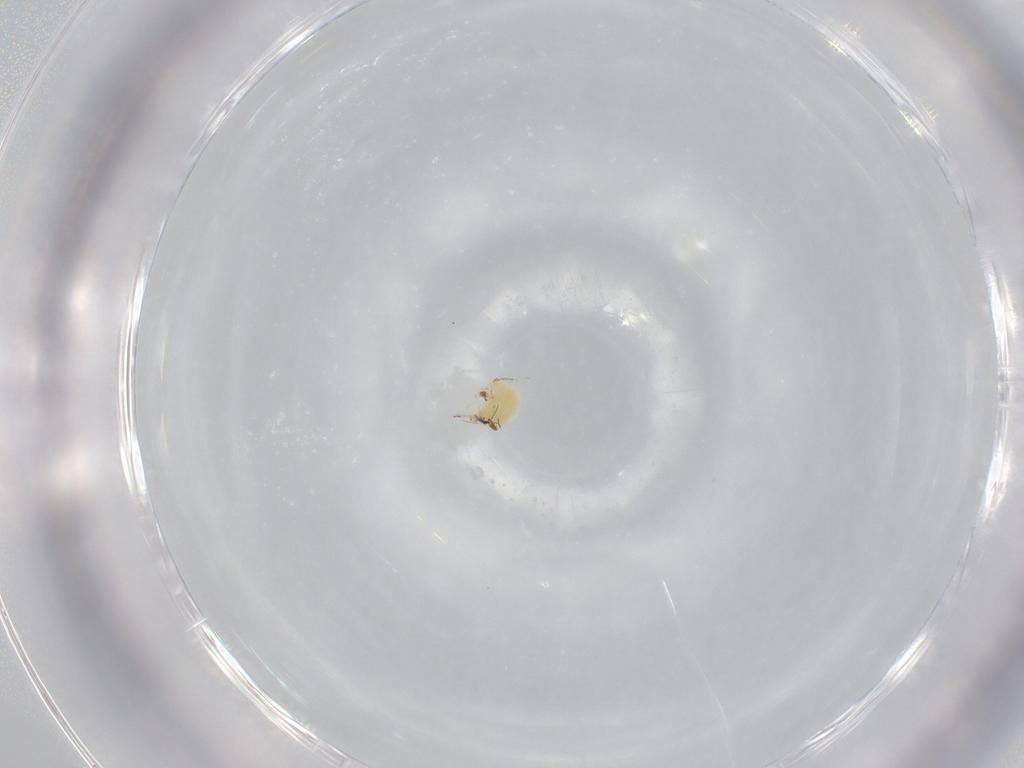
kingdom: Animalia
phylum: Arthropoda
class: Arachnida
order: Trombidiformes
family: Eupodidae
